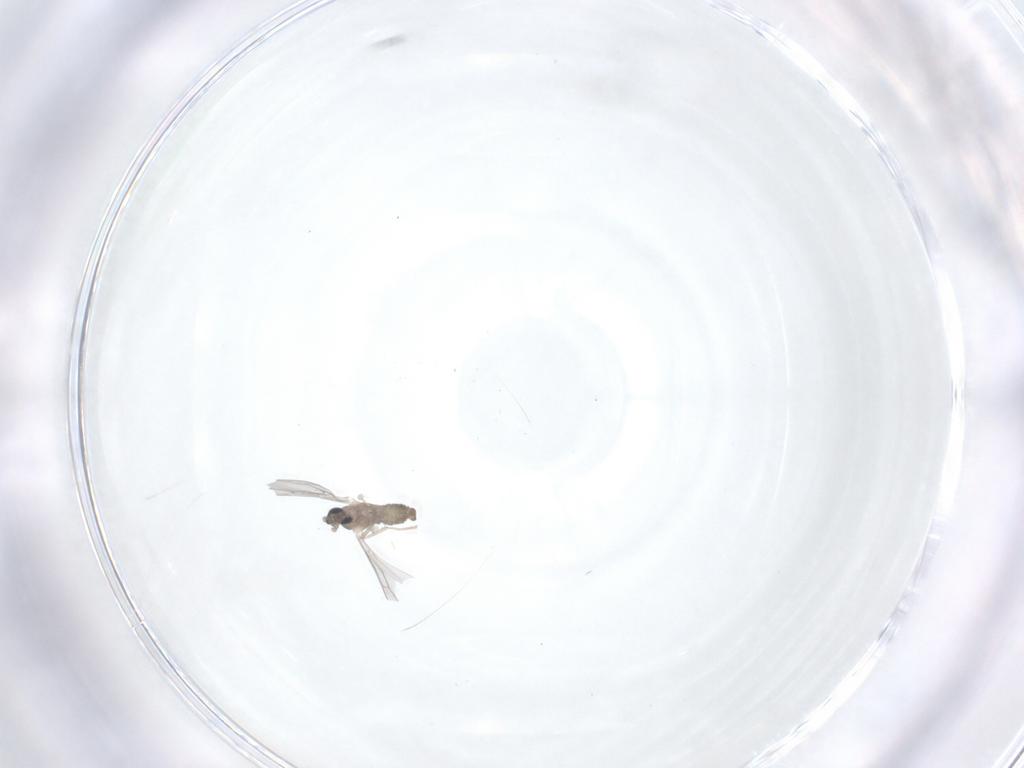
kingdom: Animalia
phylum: Arthropoda
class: Insecta
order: Diptera
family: Cecidomyiidae
